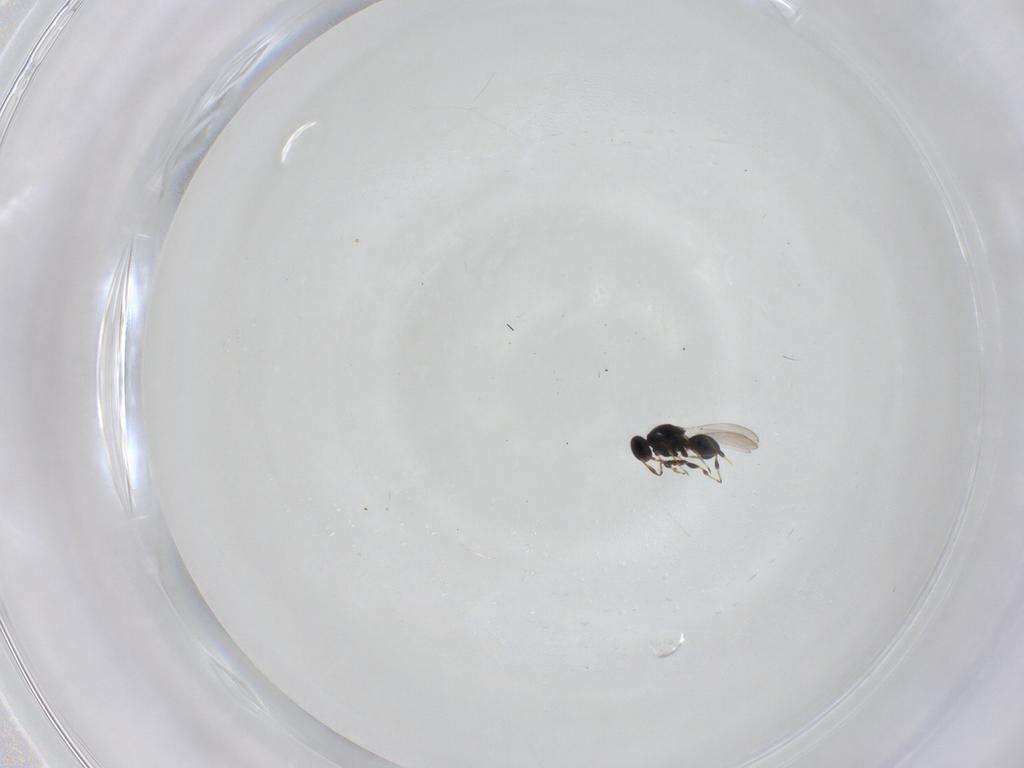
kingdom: Animalia
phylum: Arthropoda
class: Insecta
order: Hymenoptera
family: Platygastridae
